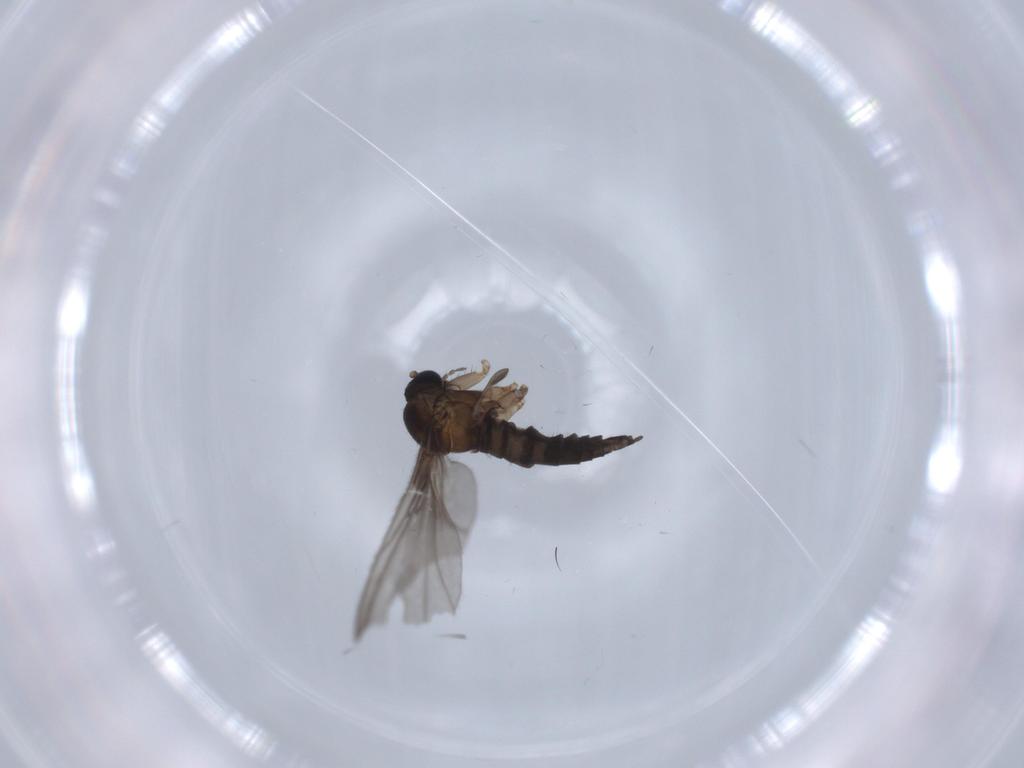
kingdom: Animalia
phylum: Arthropoda
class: Insecta
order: Diptera
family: Sciaridae
